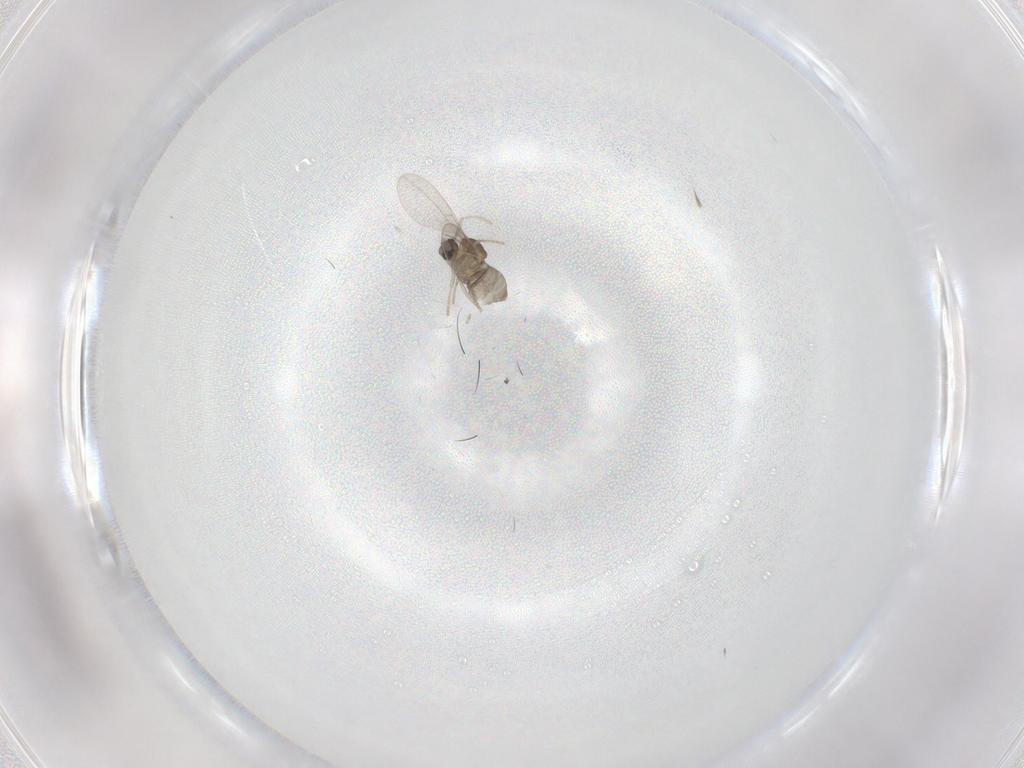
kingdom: Animalia
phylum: Arthropoda
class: Insecta
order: Diptera
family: Cecidomyiidae
